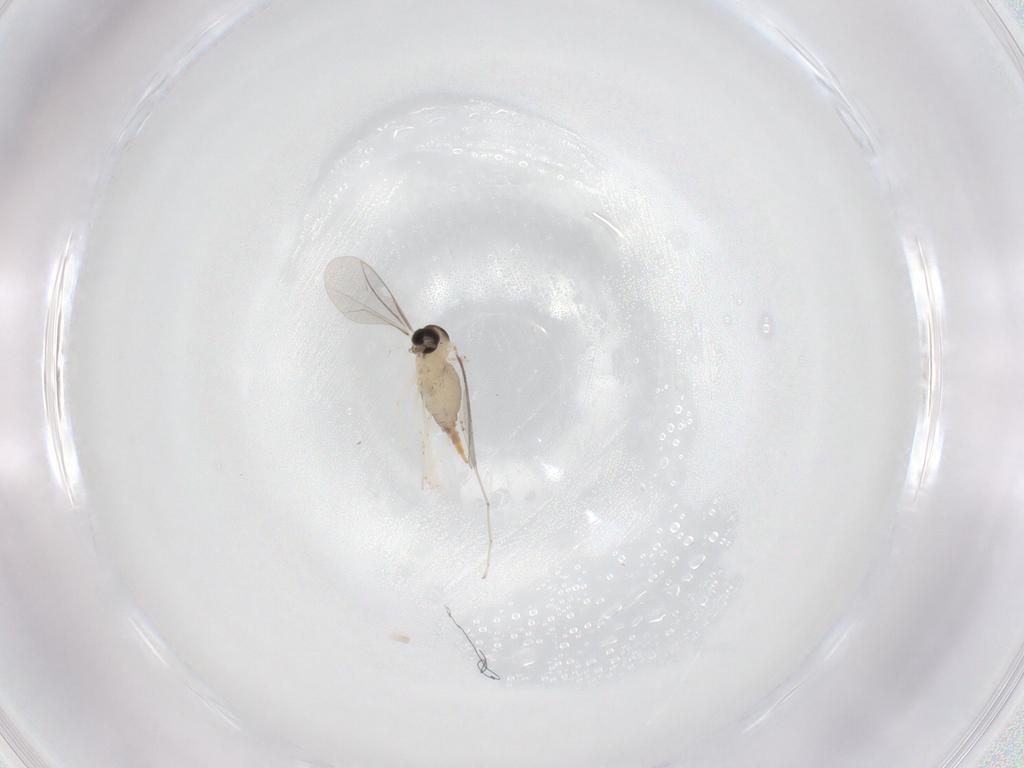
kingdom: Animalia
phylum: Arthropoda
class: Insecta
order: Diptera
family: Cecidomyiidae
